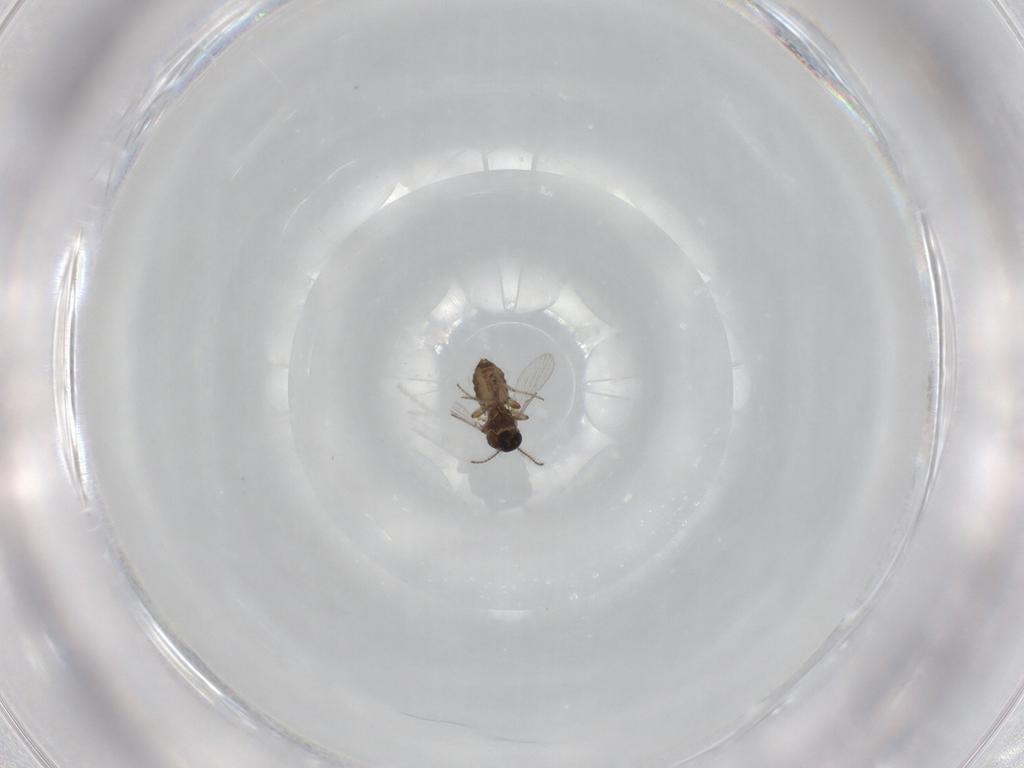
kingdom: Animalia
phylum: Arthropoda
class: Insecta
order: Diptera
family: Ceratopogonidae
